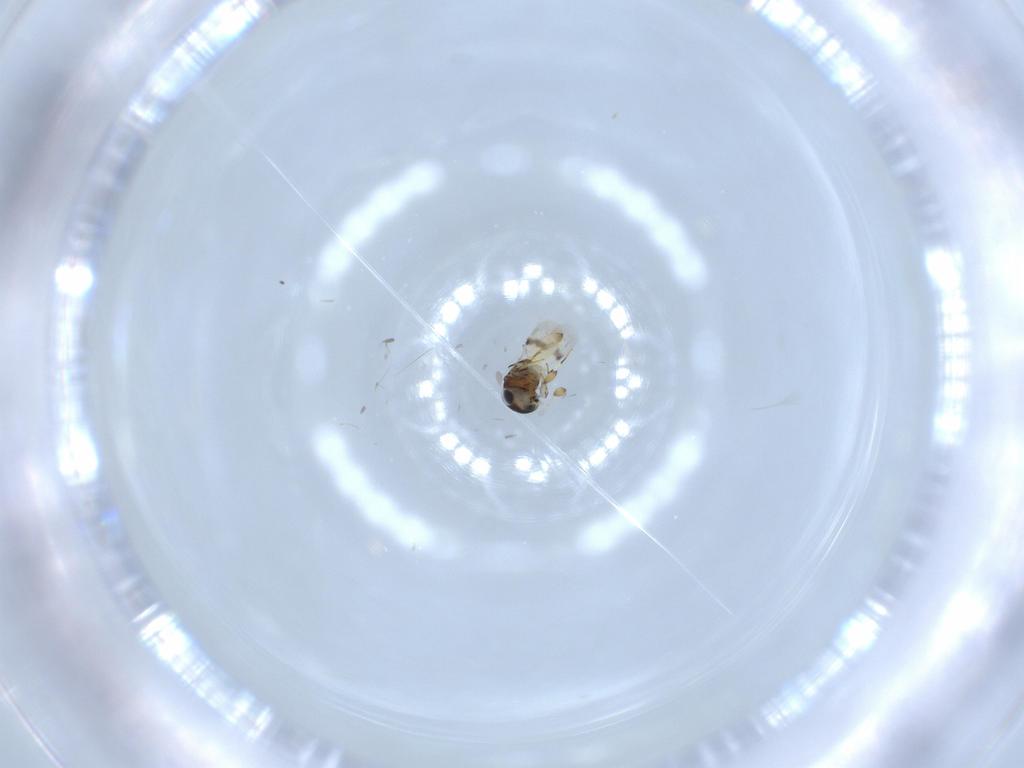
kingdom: Animalia
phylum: Arthropoda
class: Insecta
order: Hymenoptera
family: Scelionidae
